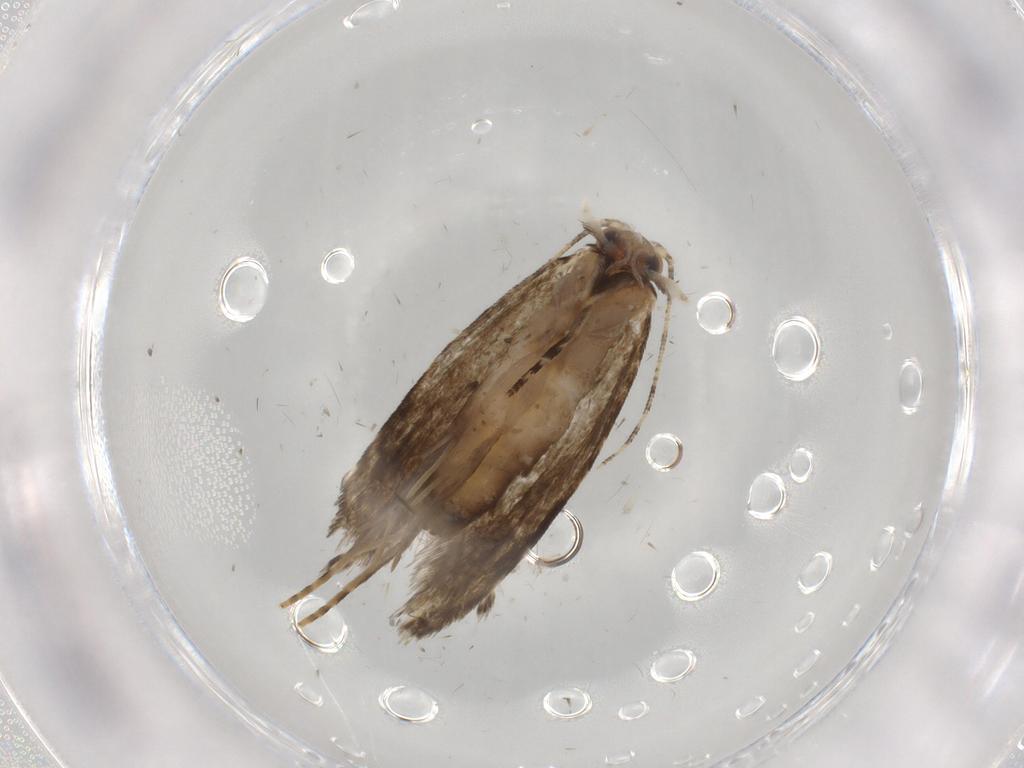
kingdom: Animalia
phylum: Arthropoda
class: Insecta
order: Lepidoptera
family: Tineidae
